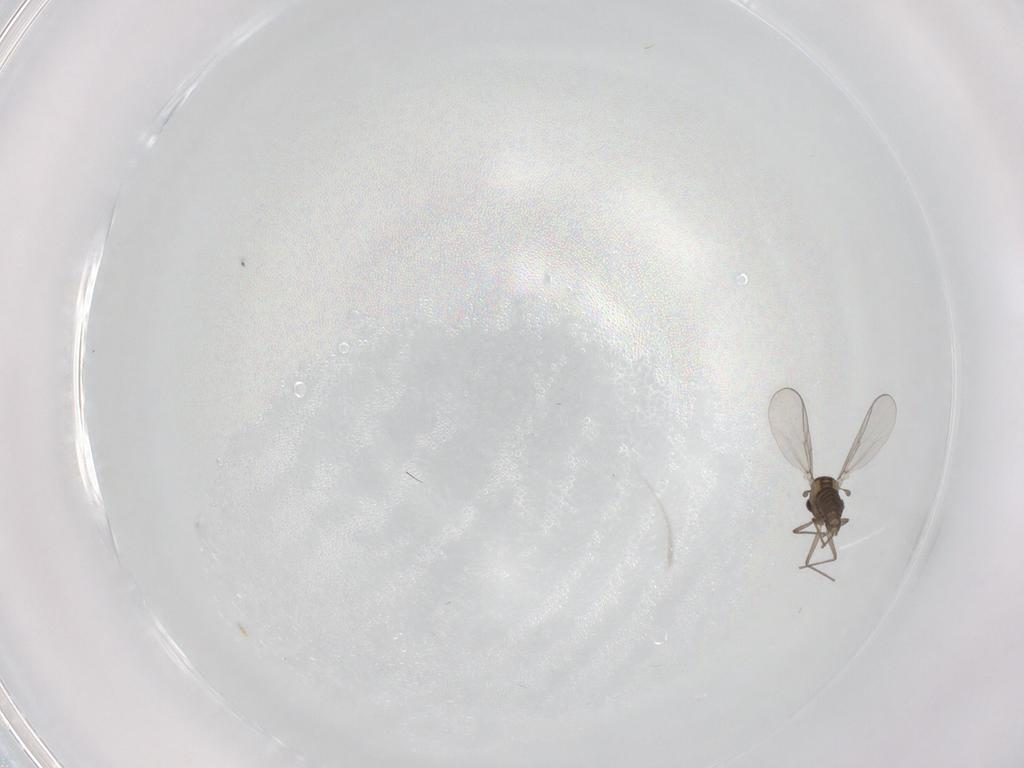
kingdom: Animalia
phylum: Arthropoda
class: Insecta
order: Diptera
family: Chironomidae
